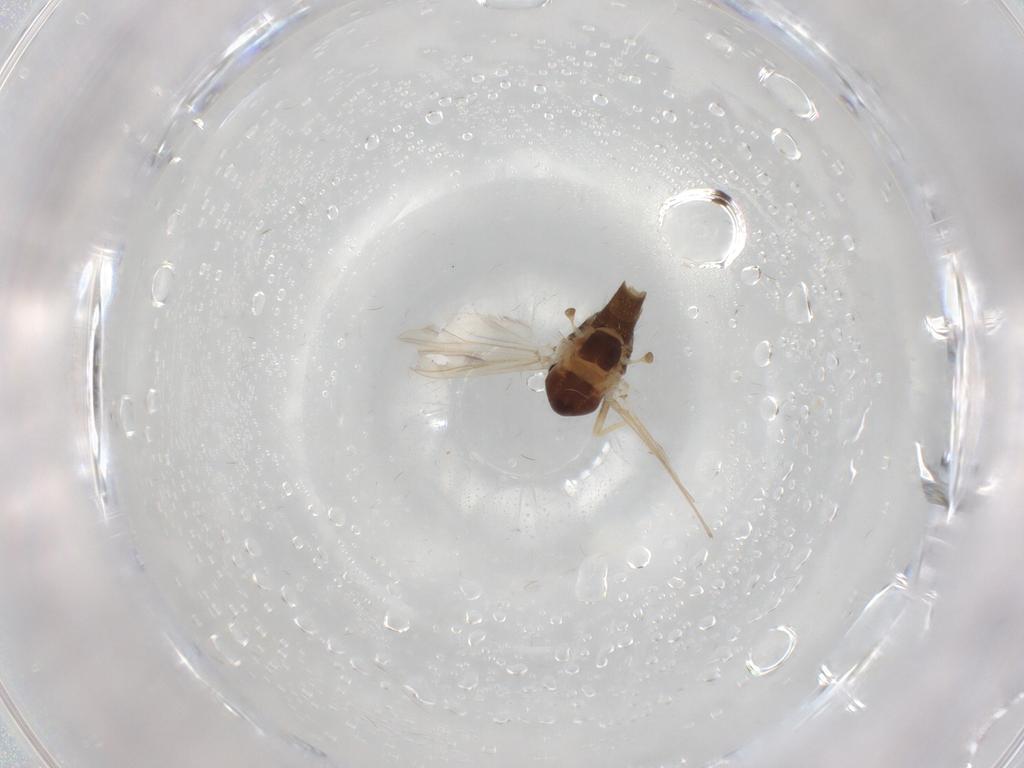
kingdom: Animalia
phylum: Arthropoda
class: Insecta
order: Diptera
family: Chironomidae
